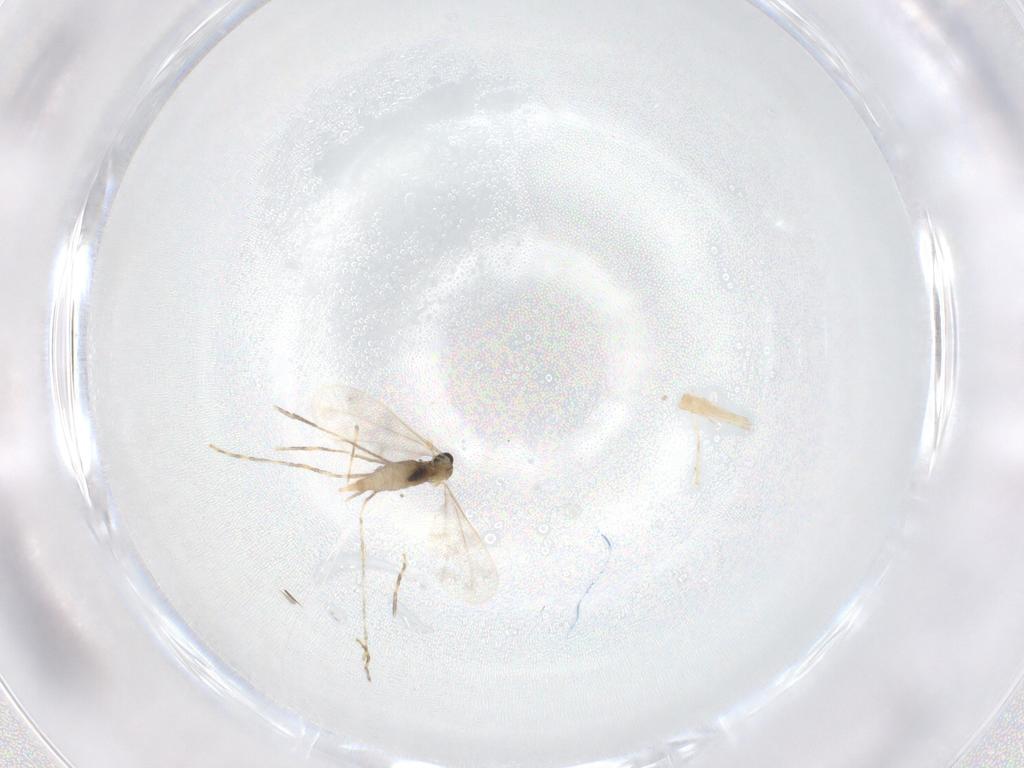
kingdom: Animalia
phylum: Arthropoda
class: Insecta
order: Diptera
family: Cecidomyiidae
